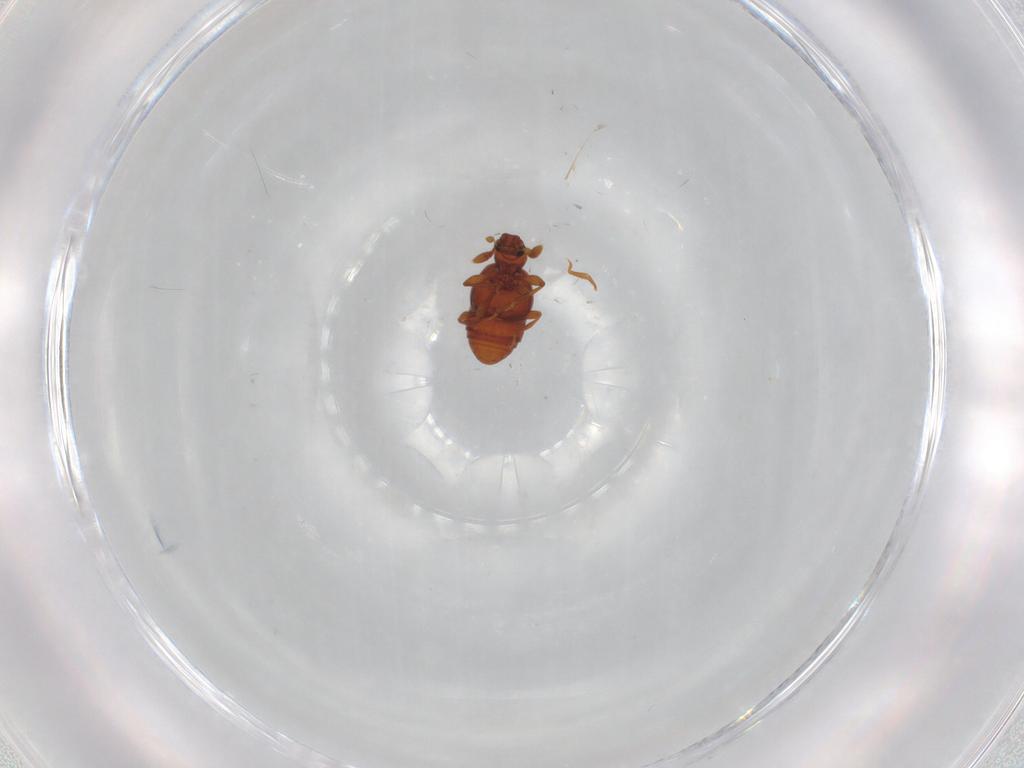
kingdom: Animalia
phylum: Arthropoda
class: Insecta
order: Coleoptera
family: Staphylinidae
